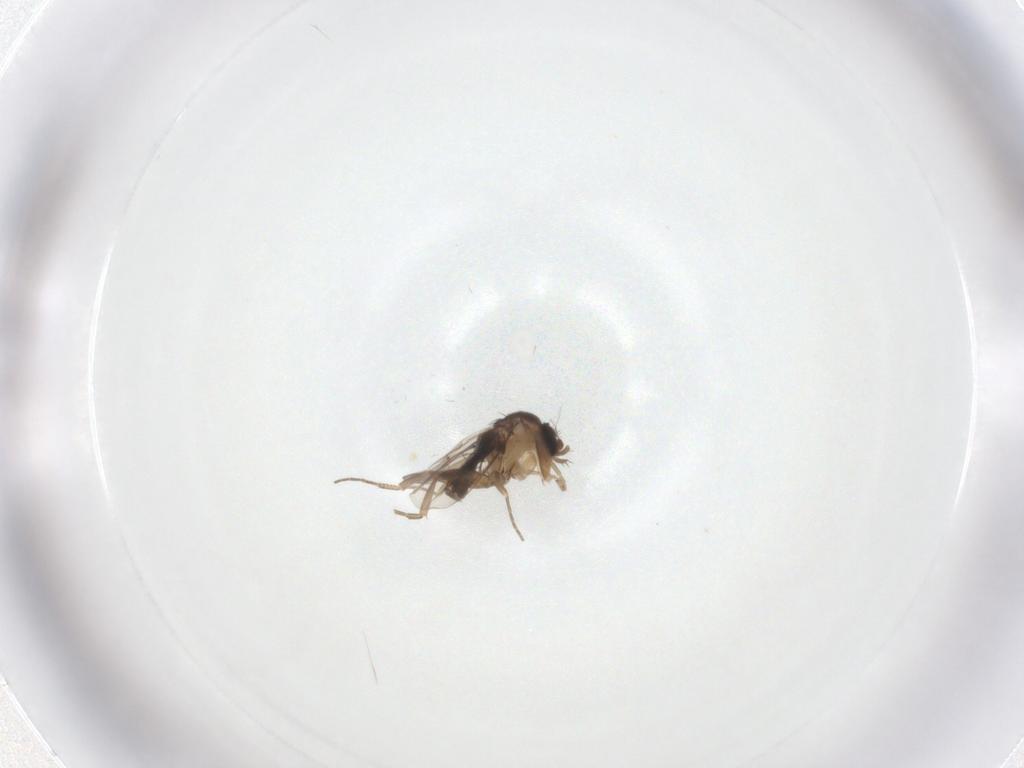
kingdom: Animalia
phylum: Arthropoda
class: Insecta
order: Diptera
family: Phoridae
